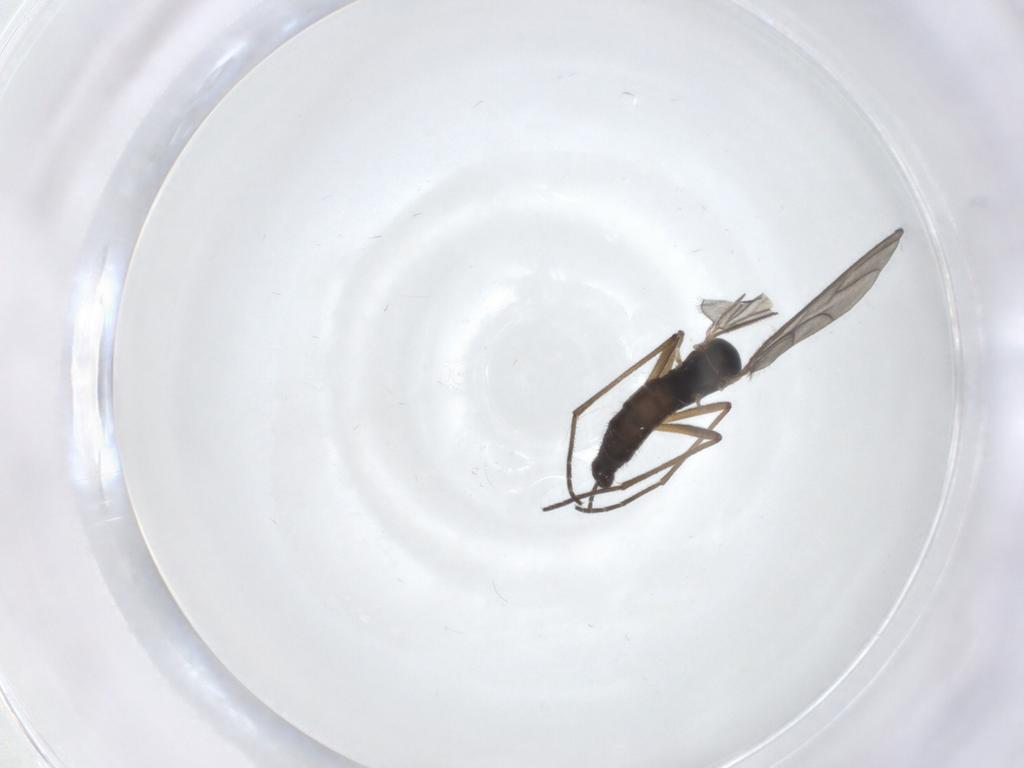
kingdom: Animalia
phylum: Arthropoda
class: Insecta
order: Diptera
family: Sciaridae
